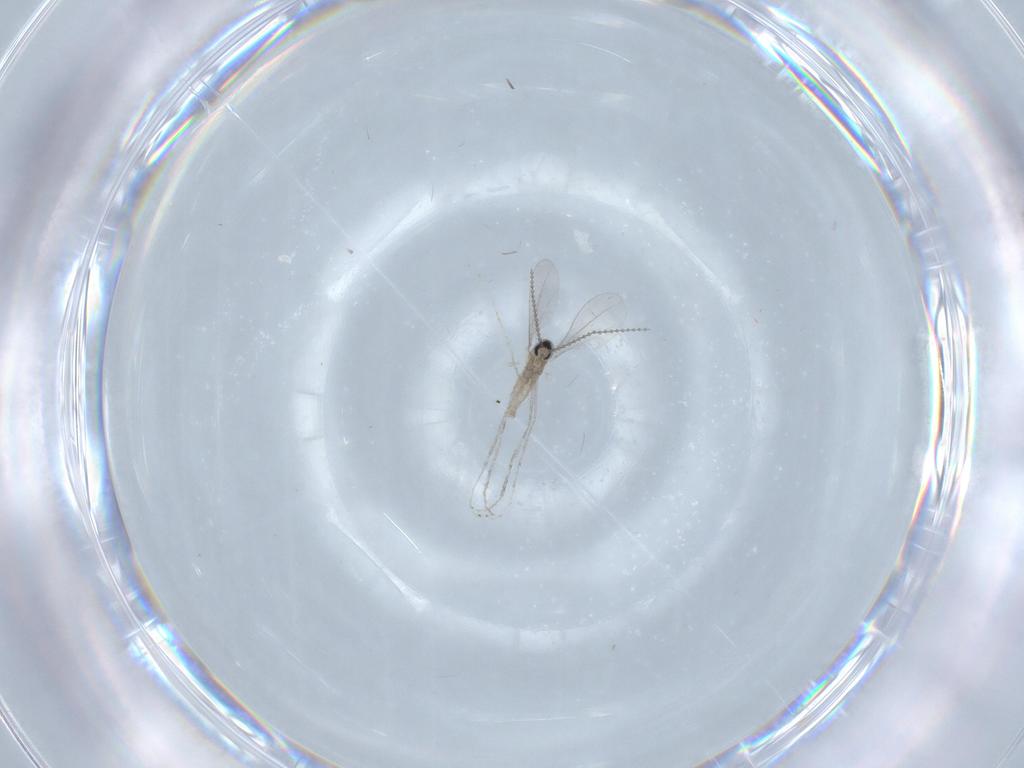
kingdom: Animalia
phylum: Arthropoda
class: Insecta
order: Diptera
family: Cecidomyiidae
